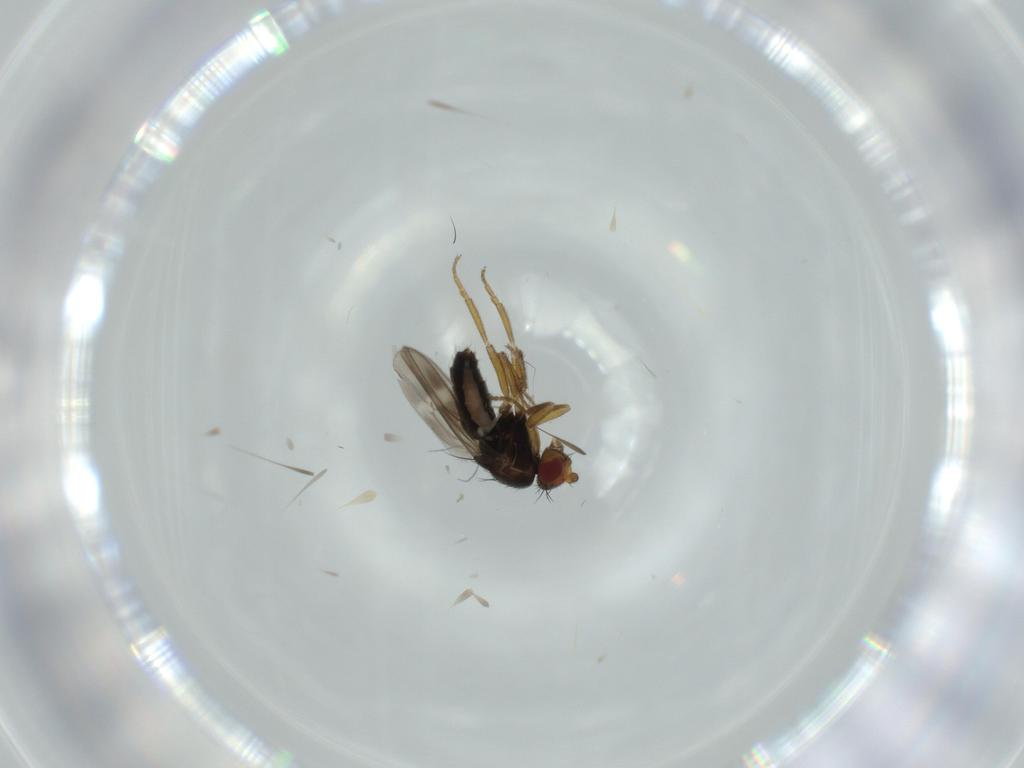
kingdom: Animalia
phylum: Arthropoda
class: Insecta
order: Diptera
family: Sphaeroceridae
